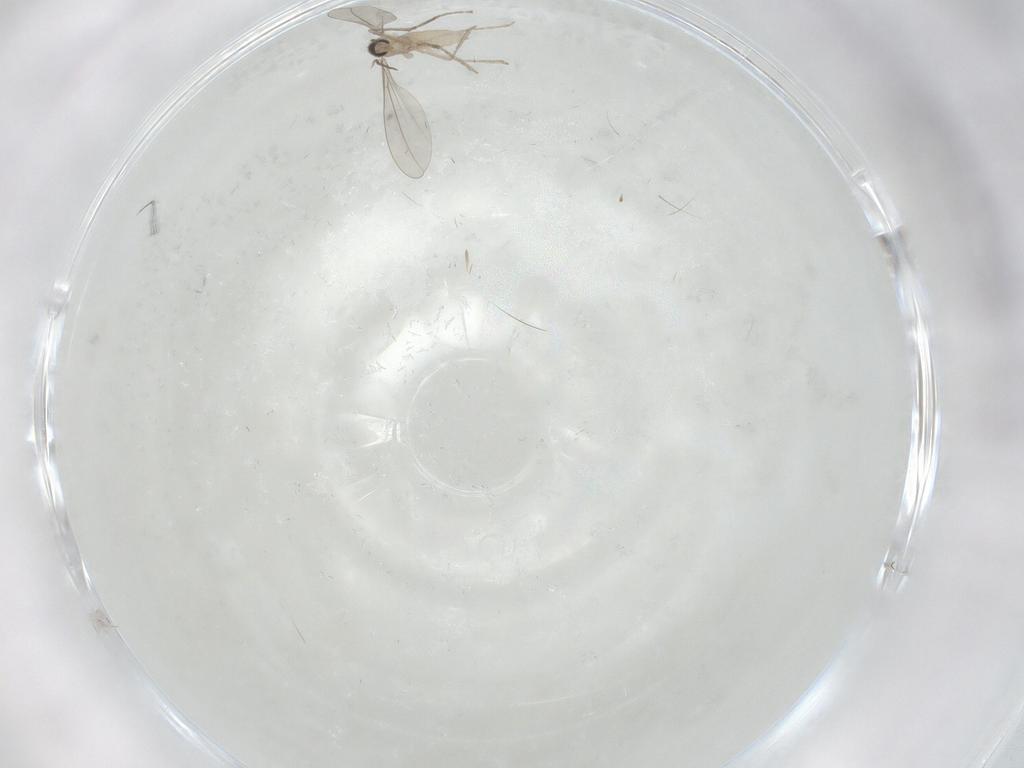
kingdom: Animalia
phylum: Arthropoda
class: Insecta
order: Diptera
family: Cecidomyiidae
